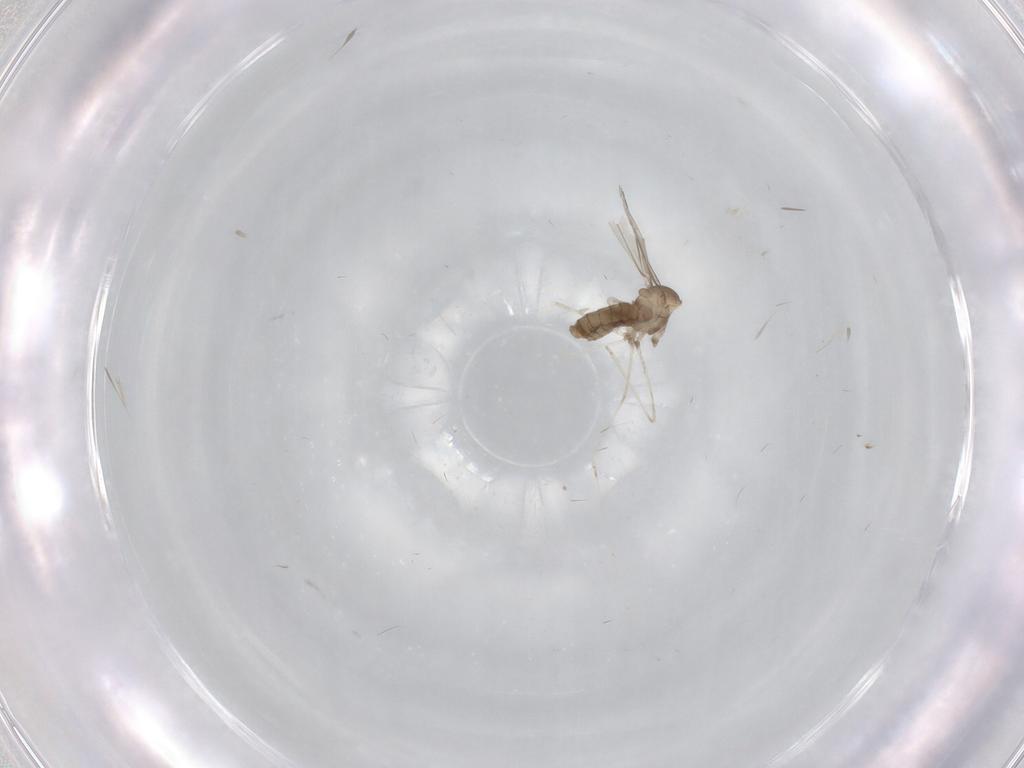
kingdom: Animalia
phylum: Arthropoda
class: Insecta
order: Diptera
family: Cecidomyiidae
